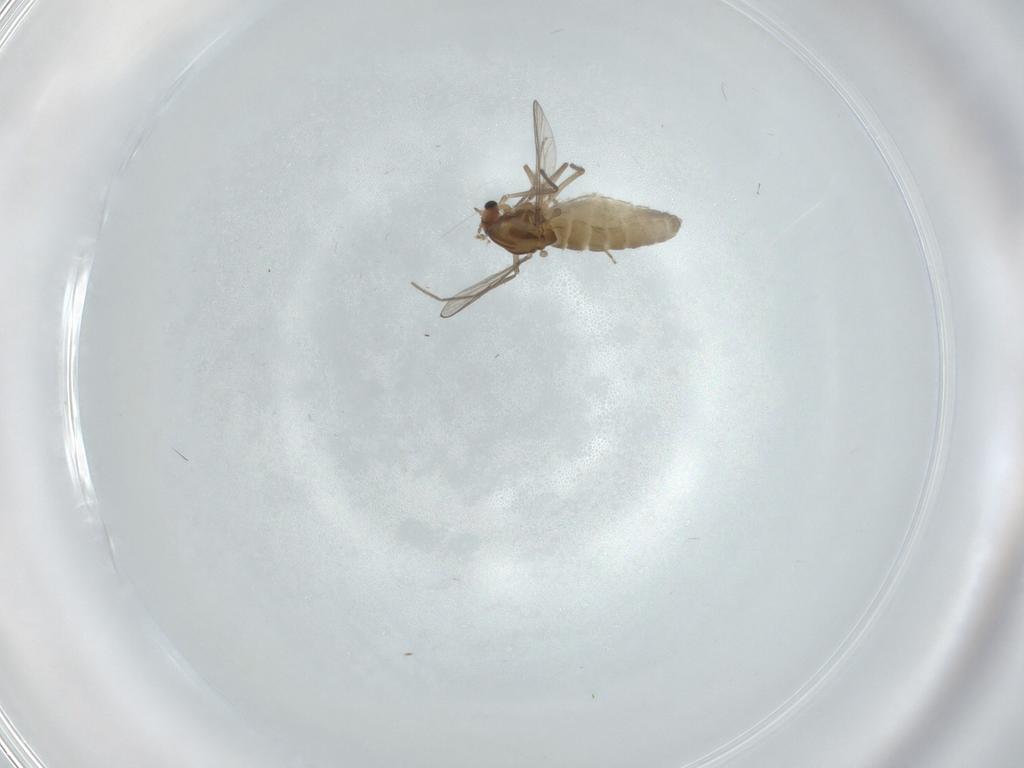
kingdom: Animalia
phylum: Arthropoda
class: Insecta
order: Diptera
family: Chironomidae
